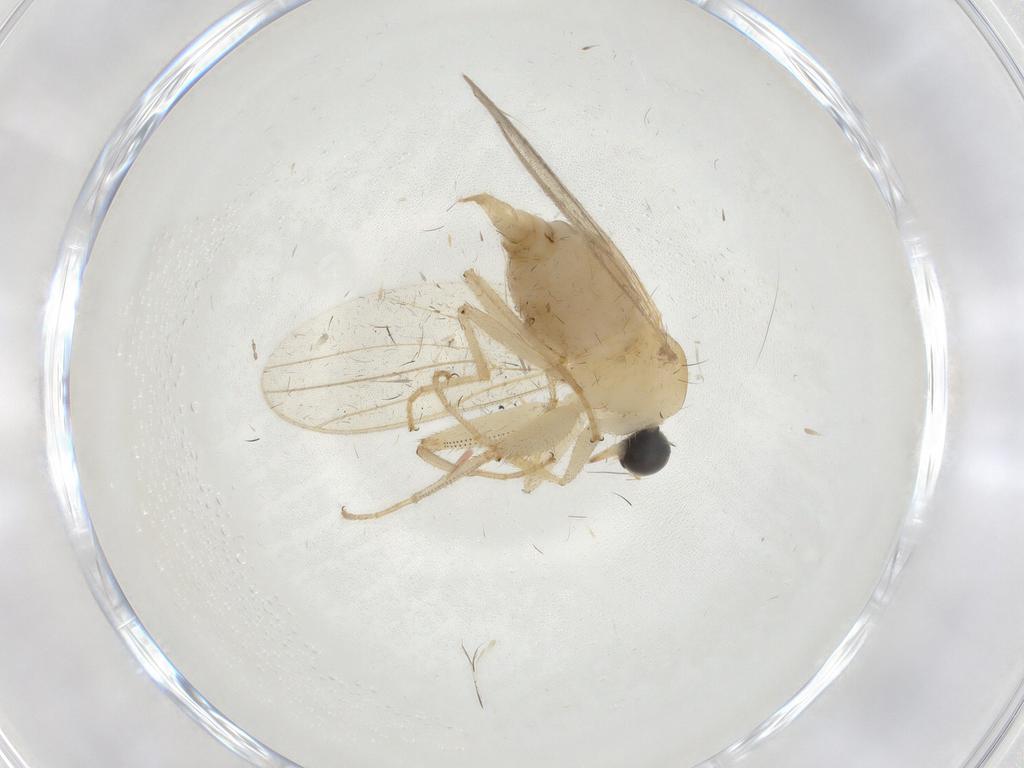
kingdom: Animalia
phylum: Arthropoda
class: Insecta
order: Diptera
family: Hybotidae
